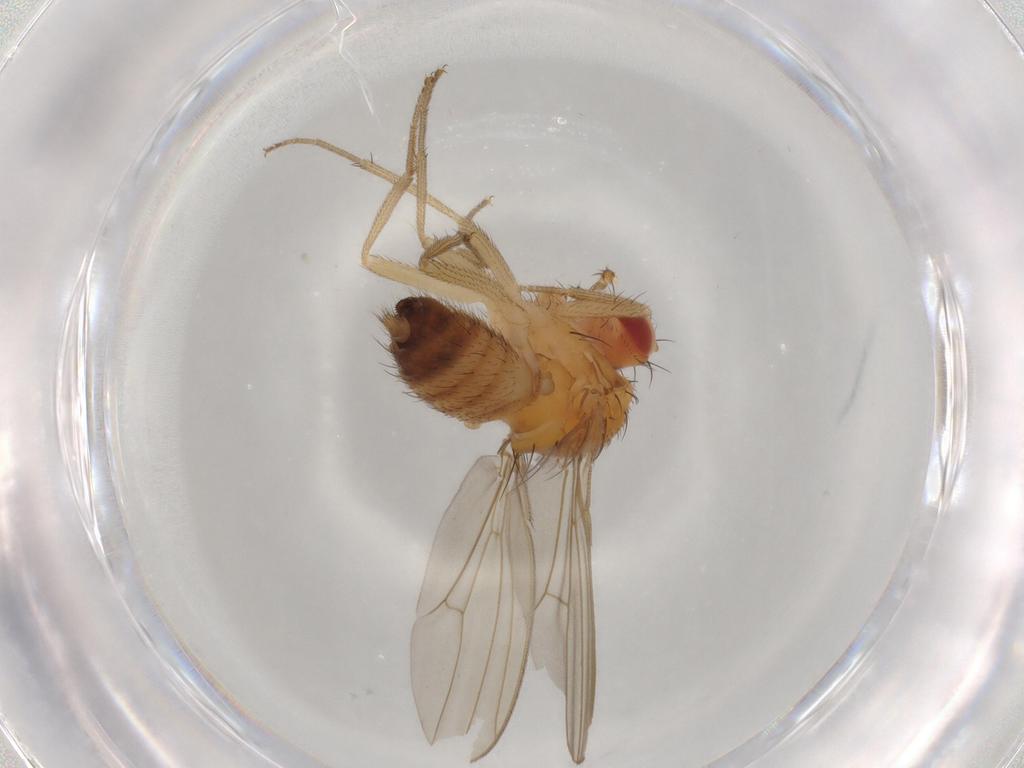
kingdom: Animalia
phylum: Arthropoda
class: Insecta
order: Diptera
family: Drosophilidae
